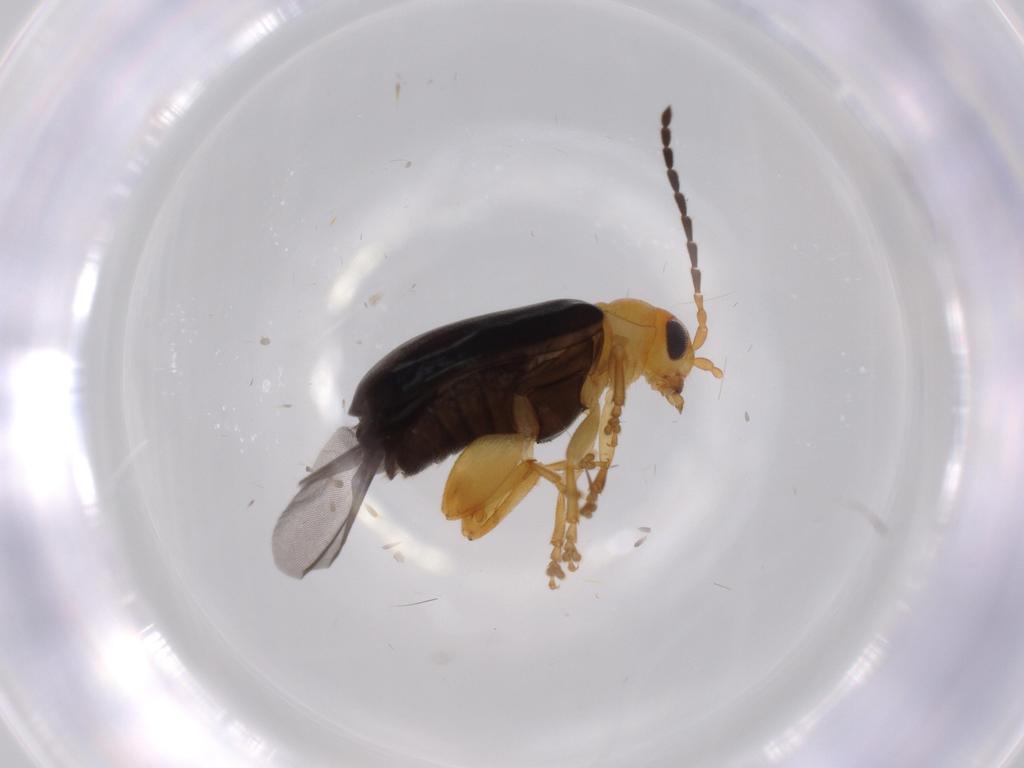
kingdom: Animalia
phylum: Arthropoda
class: Insecta
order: Coleoptera
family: Chrysomelidae
